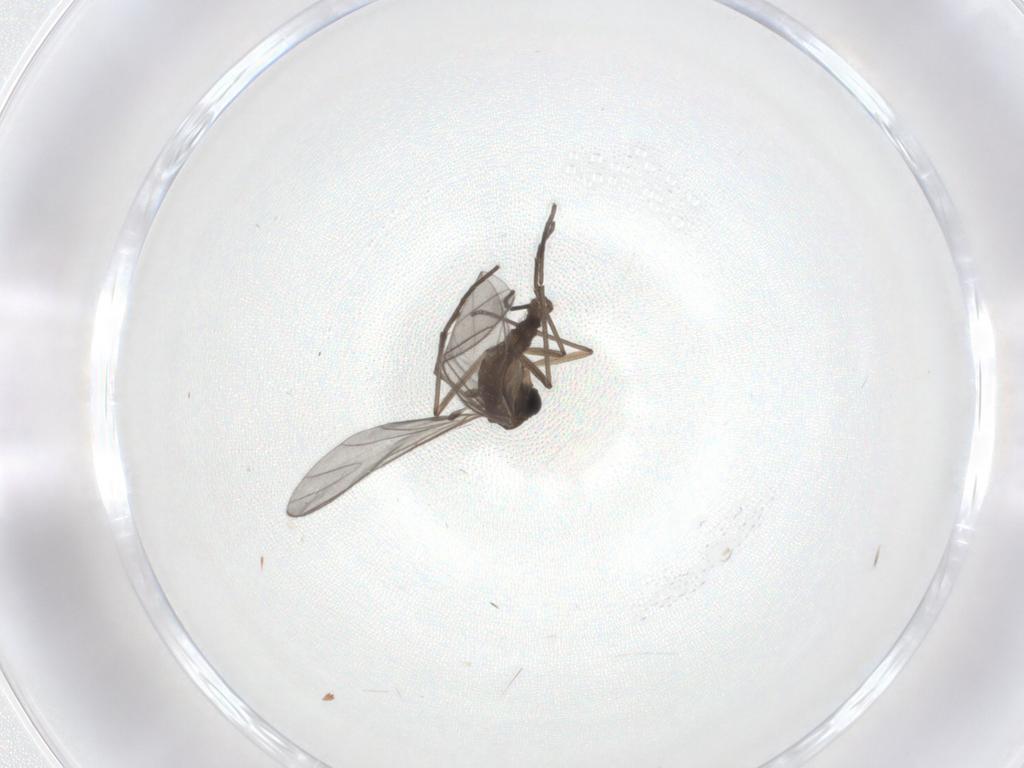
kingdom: Animalia
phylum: Arthropoda
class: Insecta
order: Diptera
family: Sciaridae
